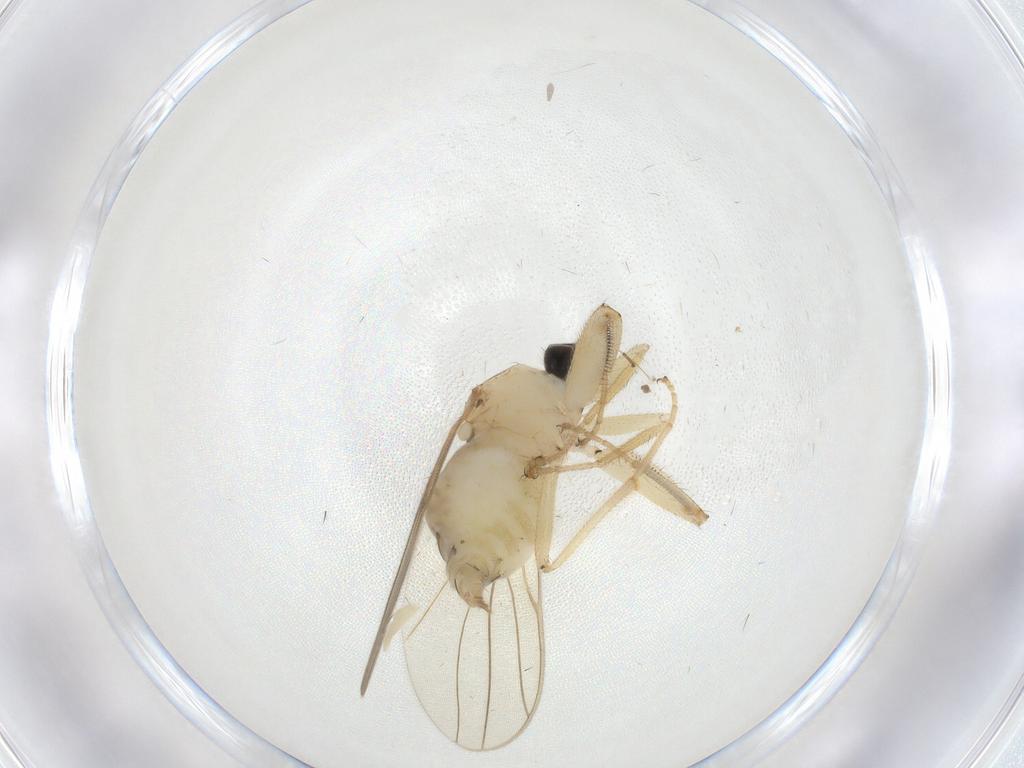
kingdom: Animalia
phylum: Arthropoda
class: Insecta
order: Diptera
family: Hybotidae
